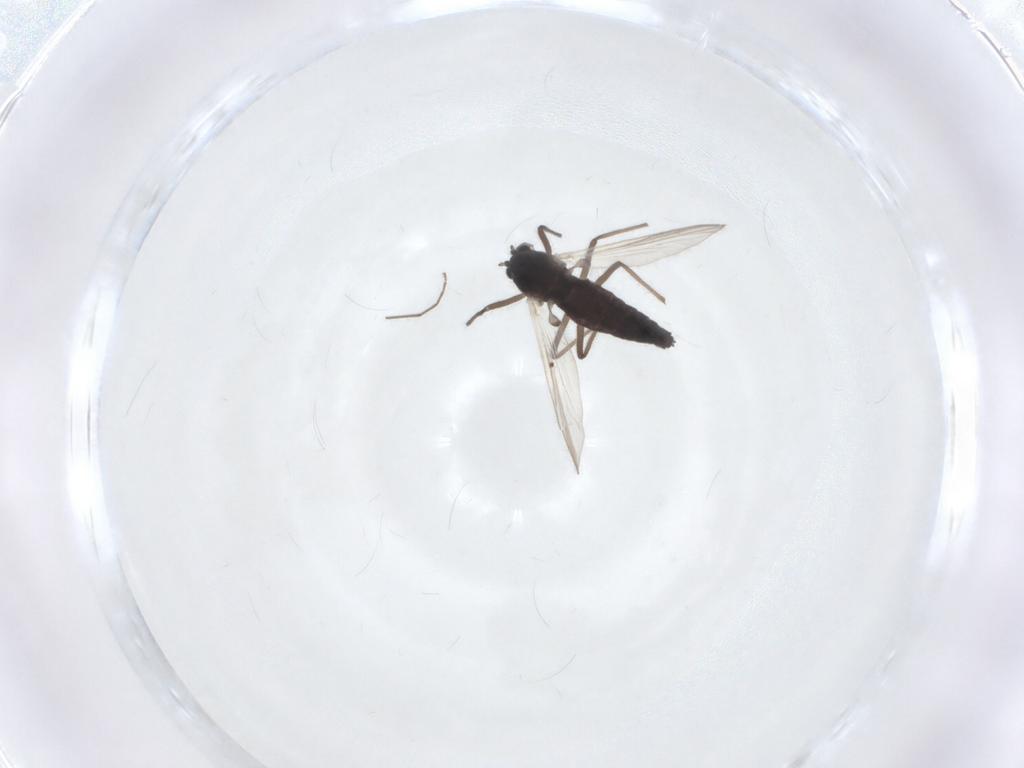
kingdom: Animalia
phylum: Arthropoda
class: Insecta
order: Diptera
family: Chironomidae
